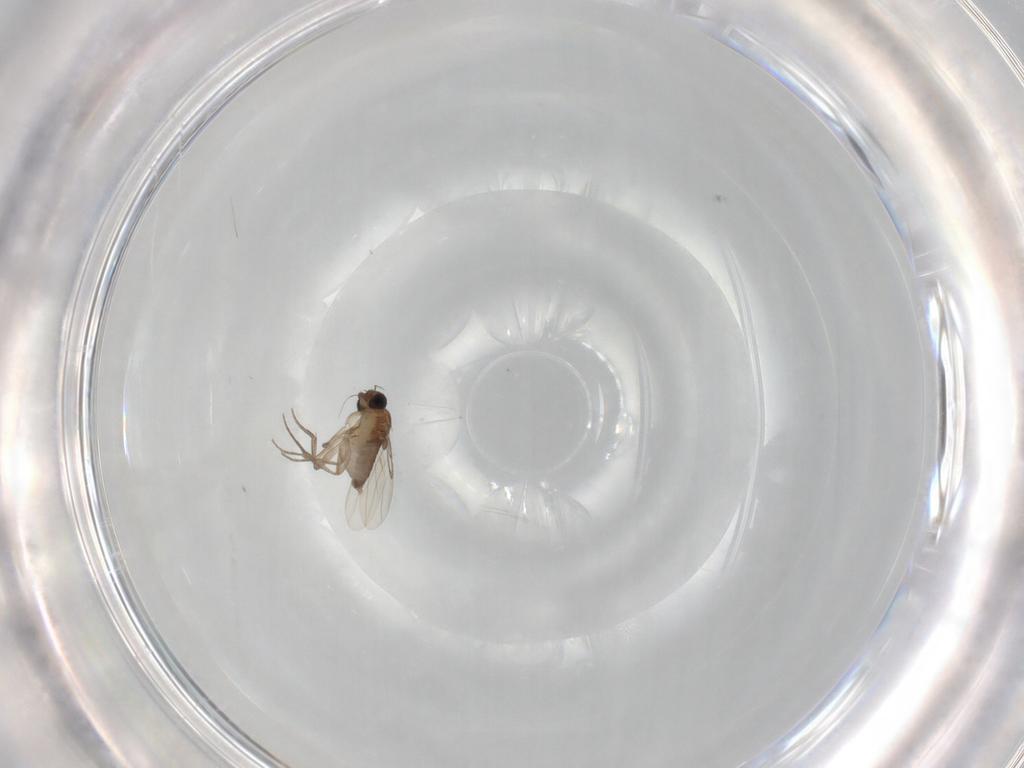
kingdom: Animalia
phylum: Arthropoda
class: Insecta
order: Diptera
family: Phoridae
